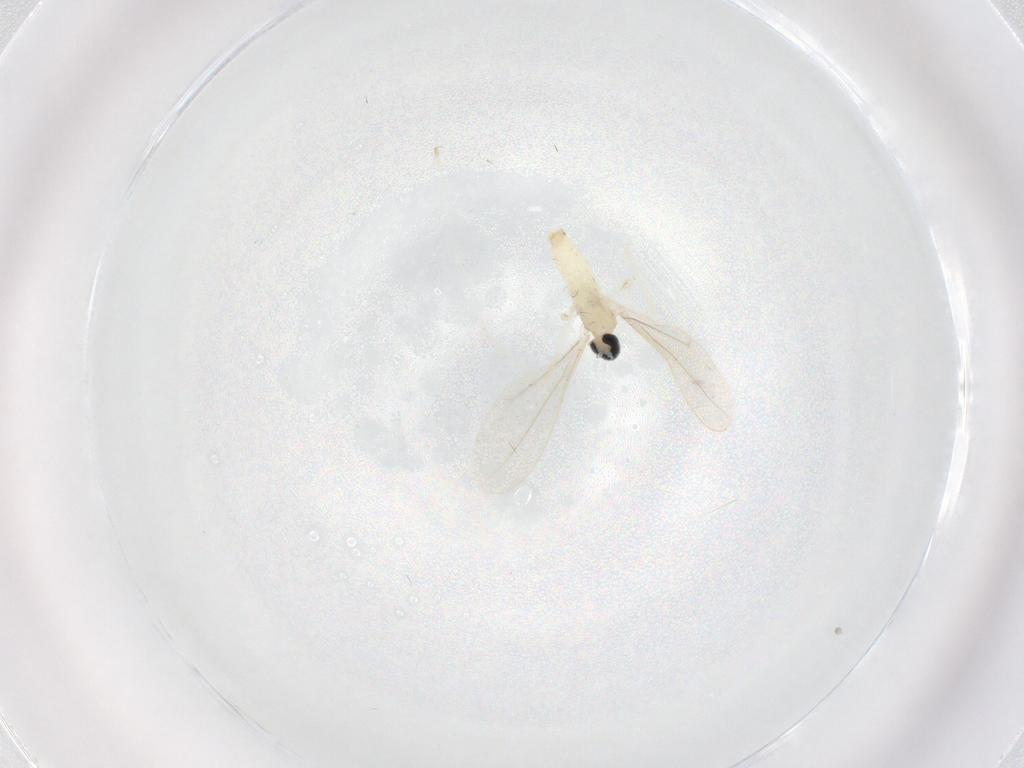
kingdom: Animalia
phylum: Arthropoda
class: Insecta
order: Diptera
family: Cecidomyiidae
